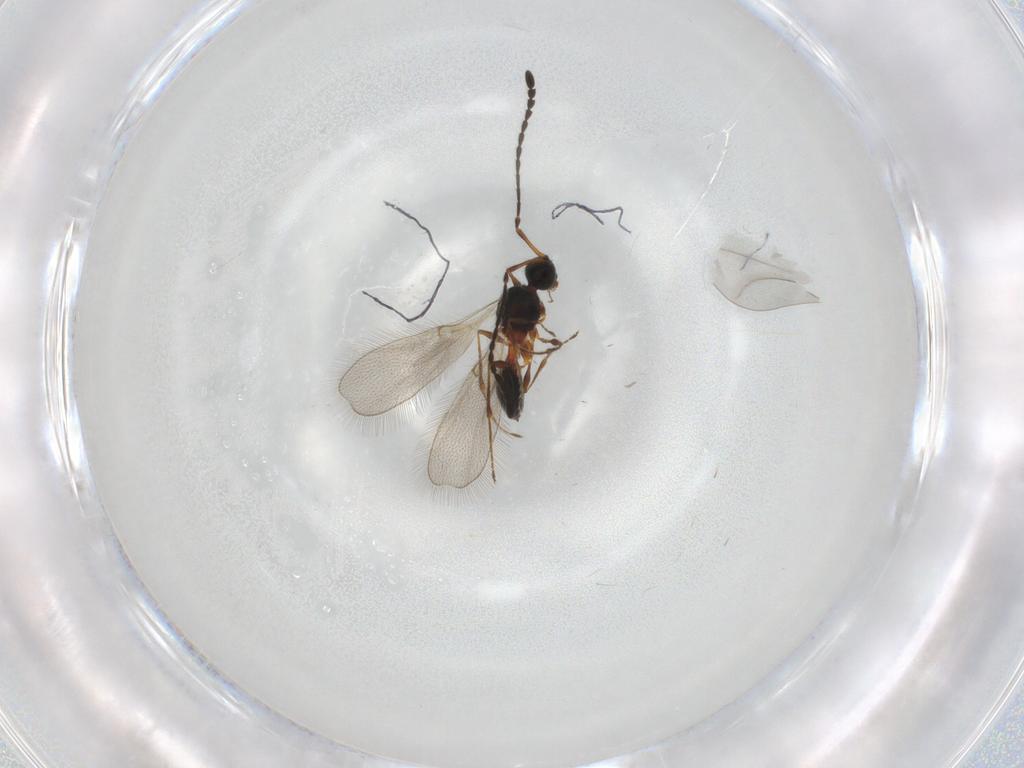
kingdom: Animalia
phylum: Arthropoda
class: Insecta
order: Hymenoptera
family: Diapriidae
